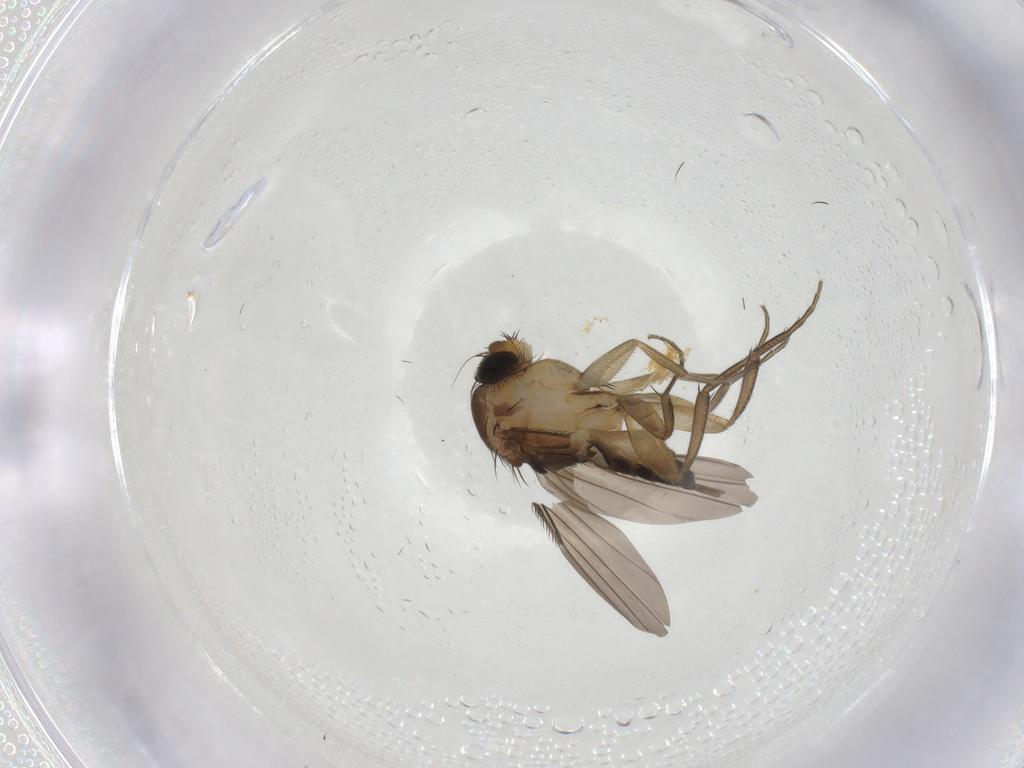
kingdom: Animalia
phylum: Arthropoda
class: Insecta
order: Diptera
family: Phoridae
